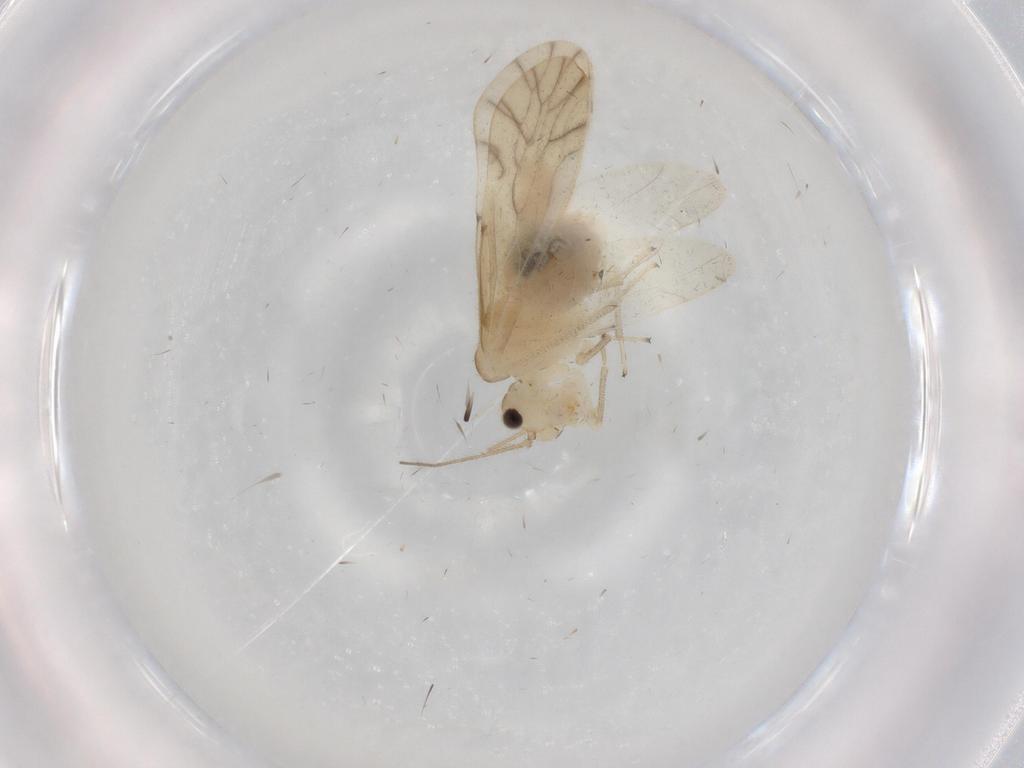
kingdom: Animalia
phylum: Arthropoda
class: Insecta
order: Psocodea
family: Caeciliusidae
